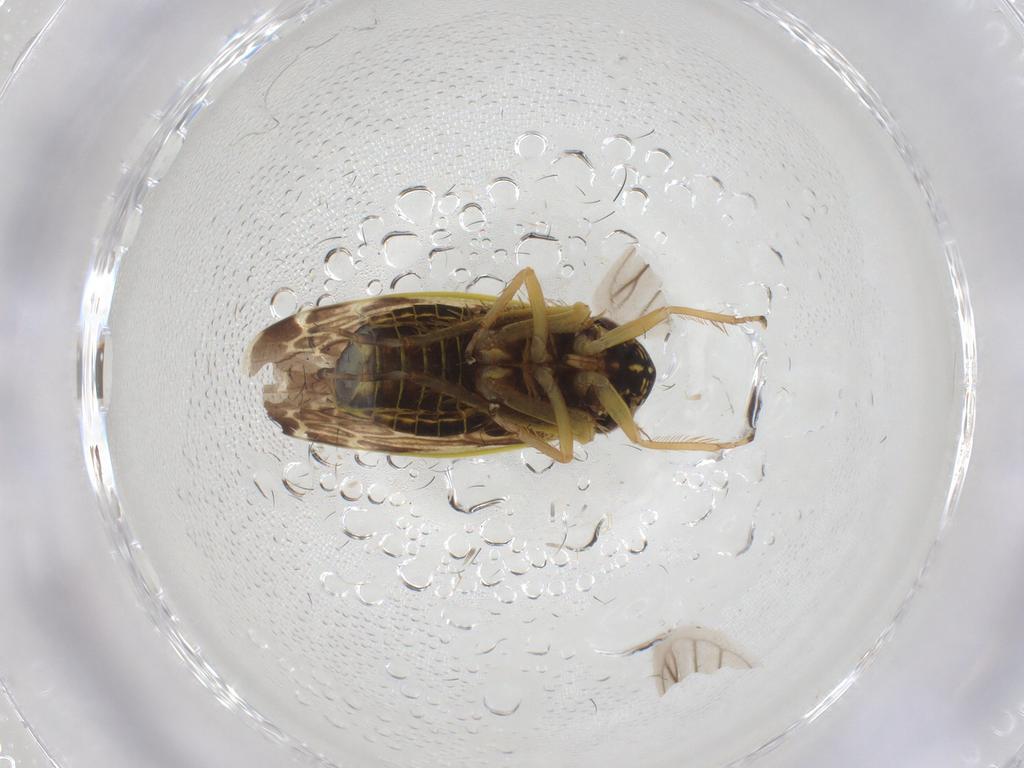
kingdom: Animalia
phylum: Arthropoda
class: Insecta
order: Hemiptera
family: Cicadellidae
